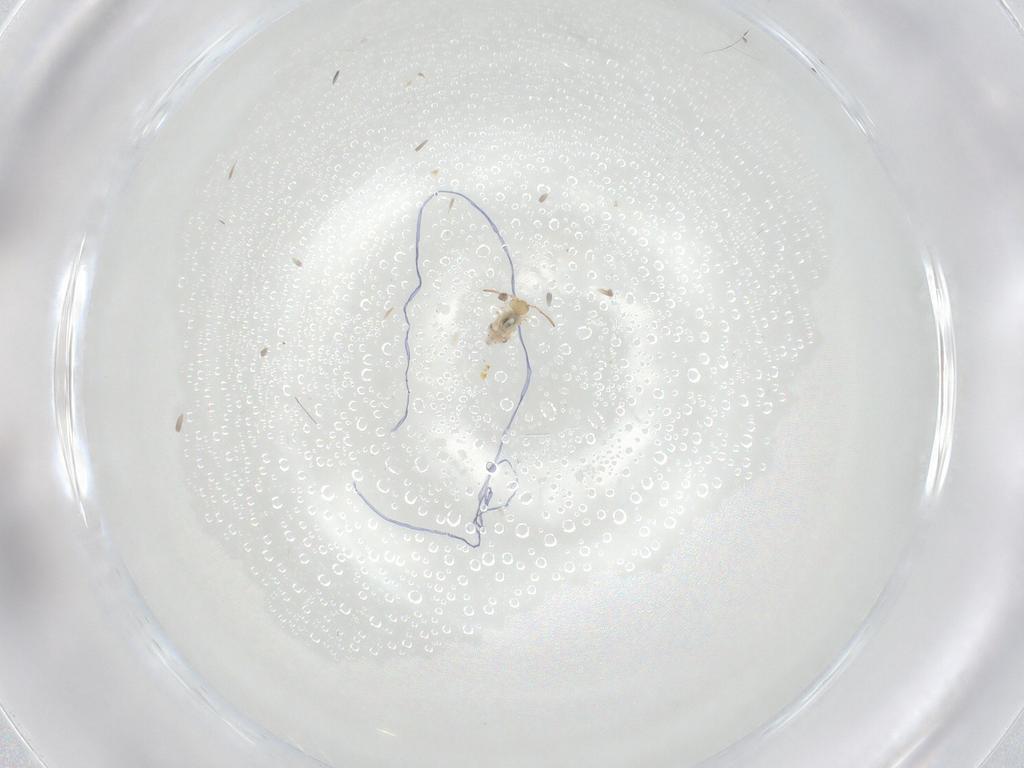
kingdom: Animalia
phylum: Arthropoda
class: Collembola
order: Symphypleona
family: Bourletiellidae
